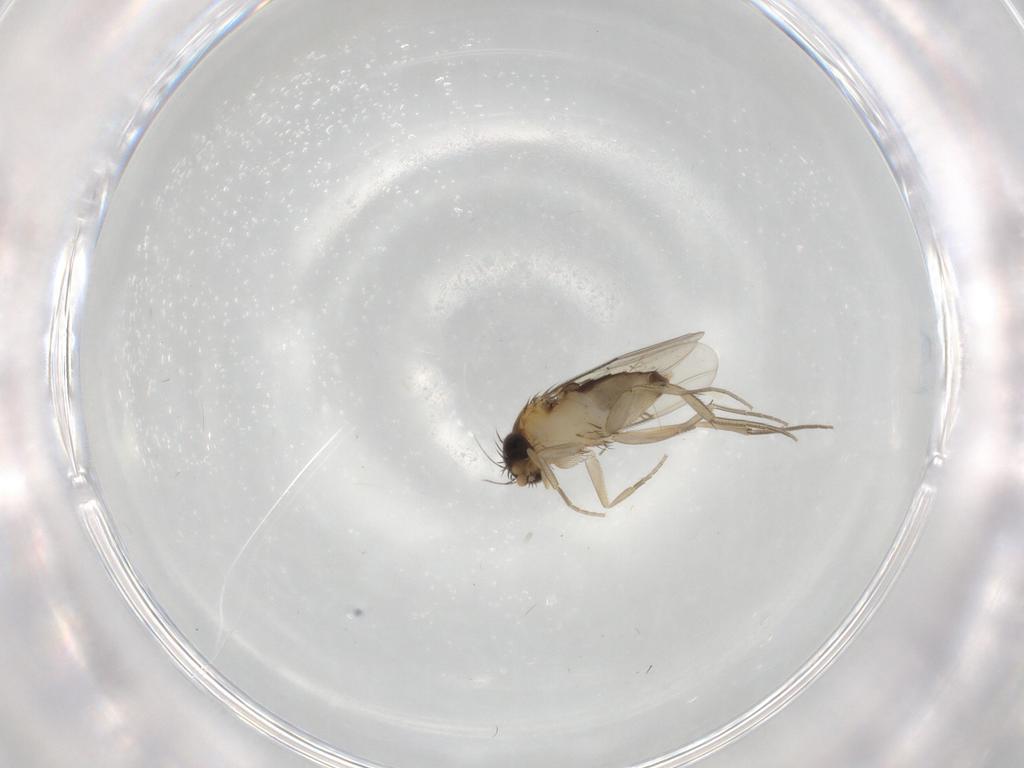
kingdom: Animalia
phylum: Arthropoda
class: Insecta
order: Diptera
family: Phoridae
